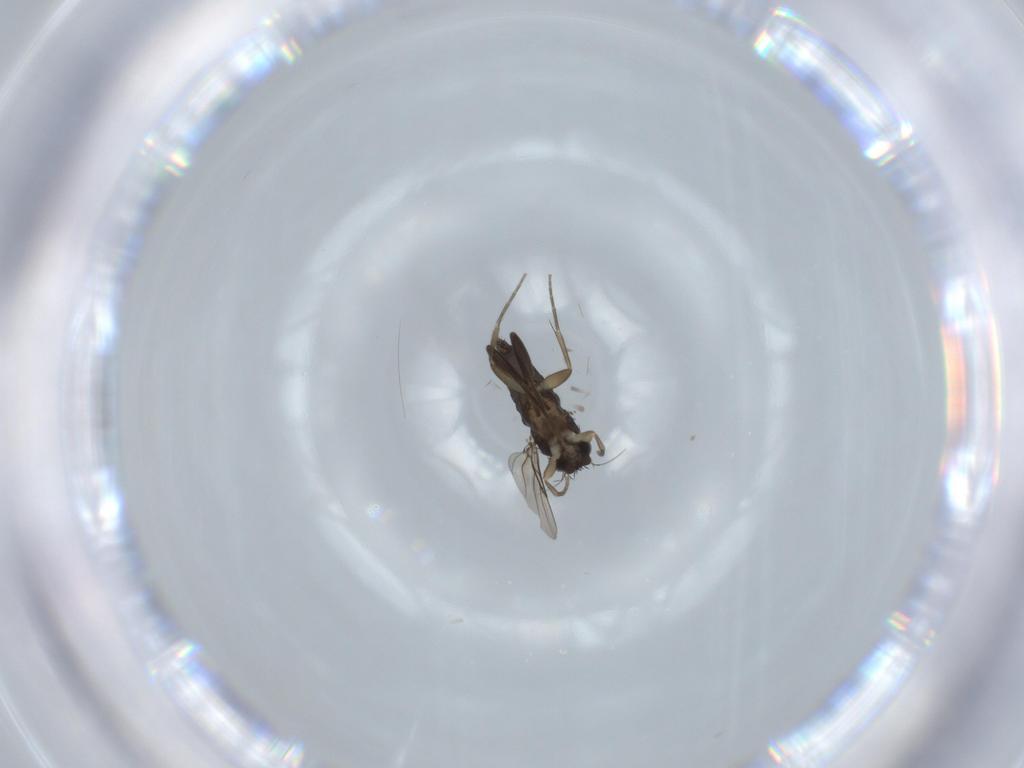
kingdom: Animalia
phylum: Arthropoda
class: Insecta
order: Diptera
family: Phoridae
